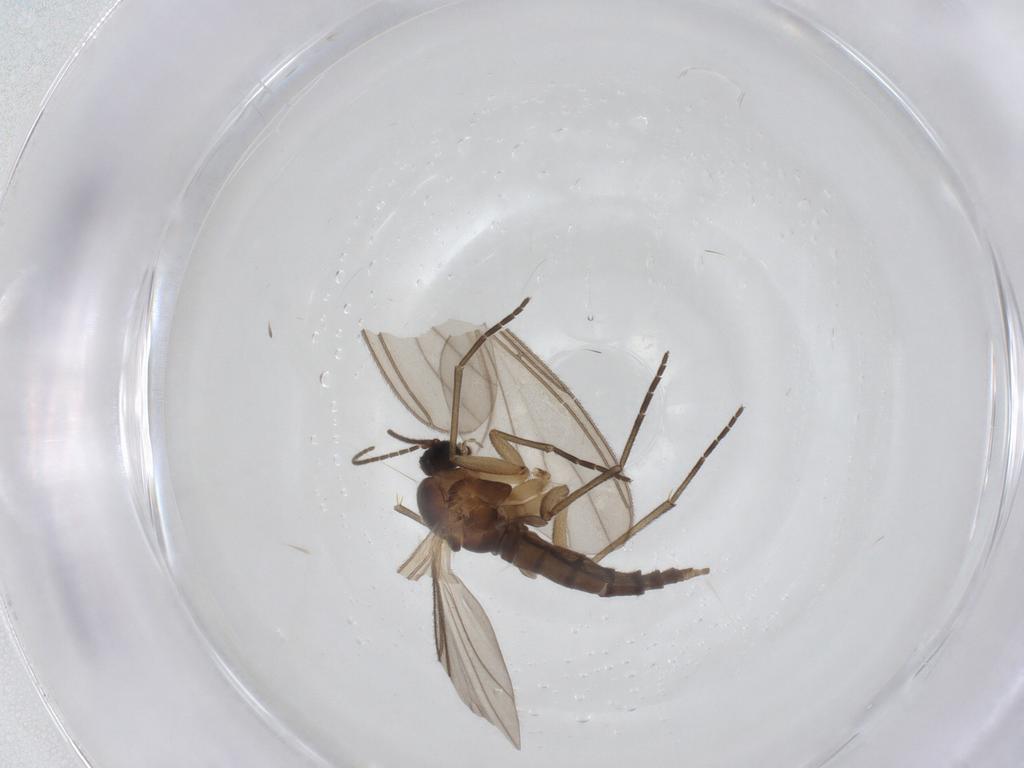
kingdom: Animalia
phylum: Arthropoda
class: Insecta
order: Diptera
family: Sciaridae
